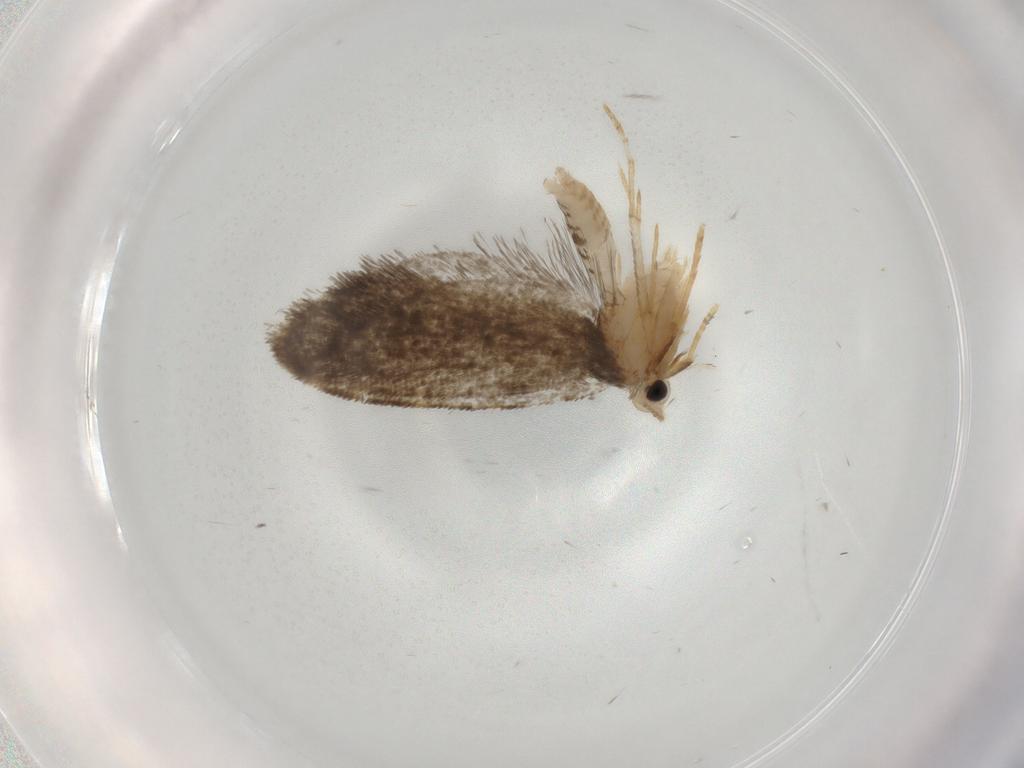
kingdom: Animalia
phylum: Arthropoda
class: Insecta
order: Lepidoptera
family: Psychidae
